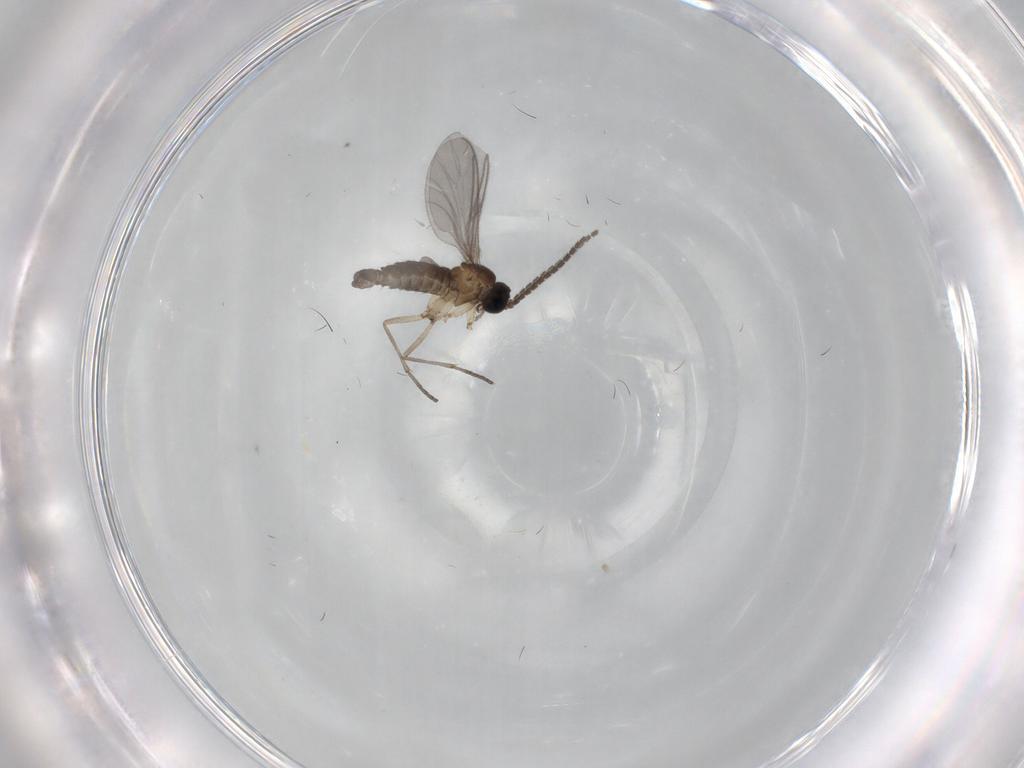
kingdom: Animalia
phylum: Arthropoda
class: Insecta
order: Diptera
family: Sciaridae
